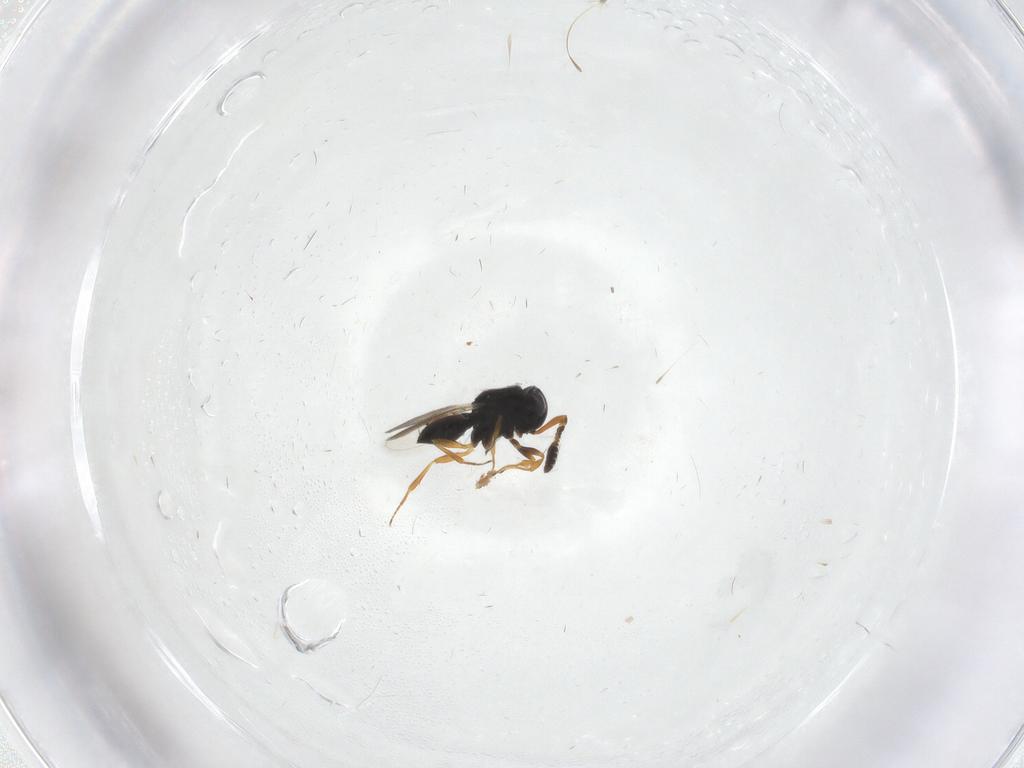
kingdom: Animalia
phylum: Arthropoda
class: Insecta
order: Hymenoptera
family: Scelionidae
